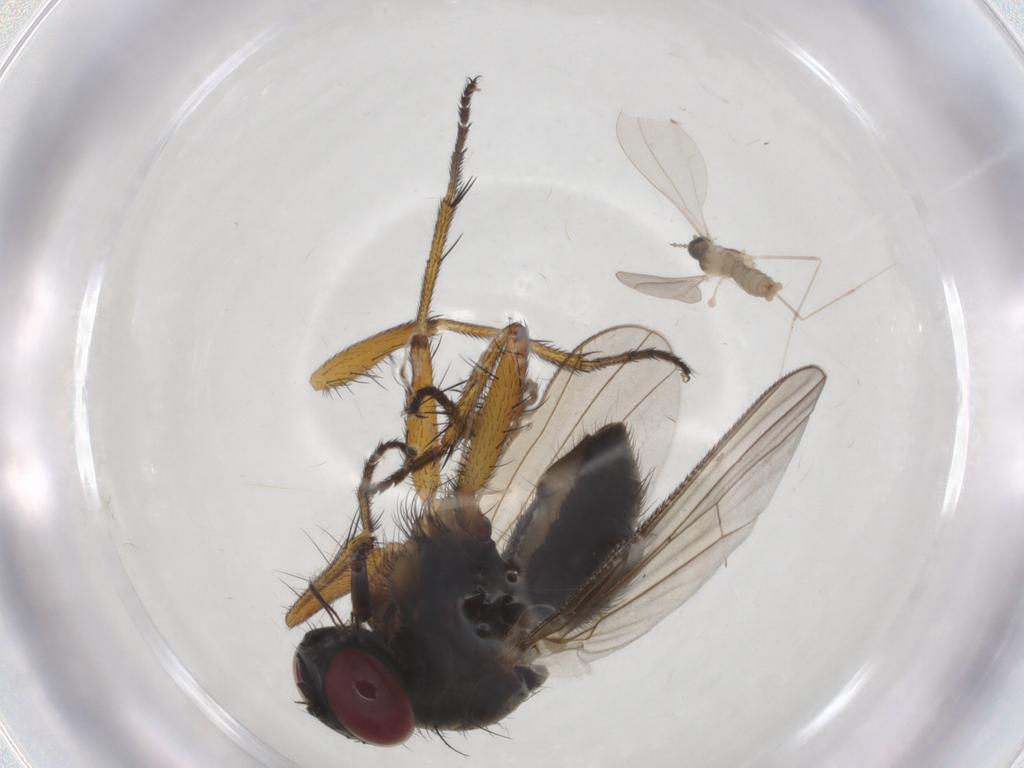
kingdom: Animalia
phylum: Arthropoda
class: Insecta
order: Diptera
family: Muscidae
